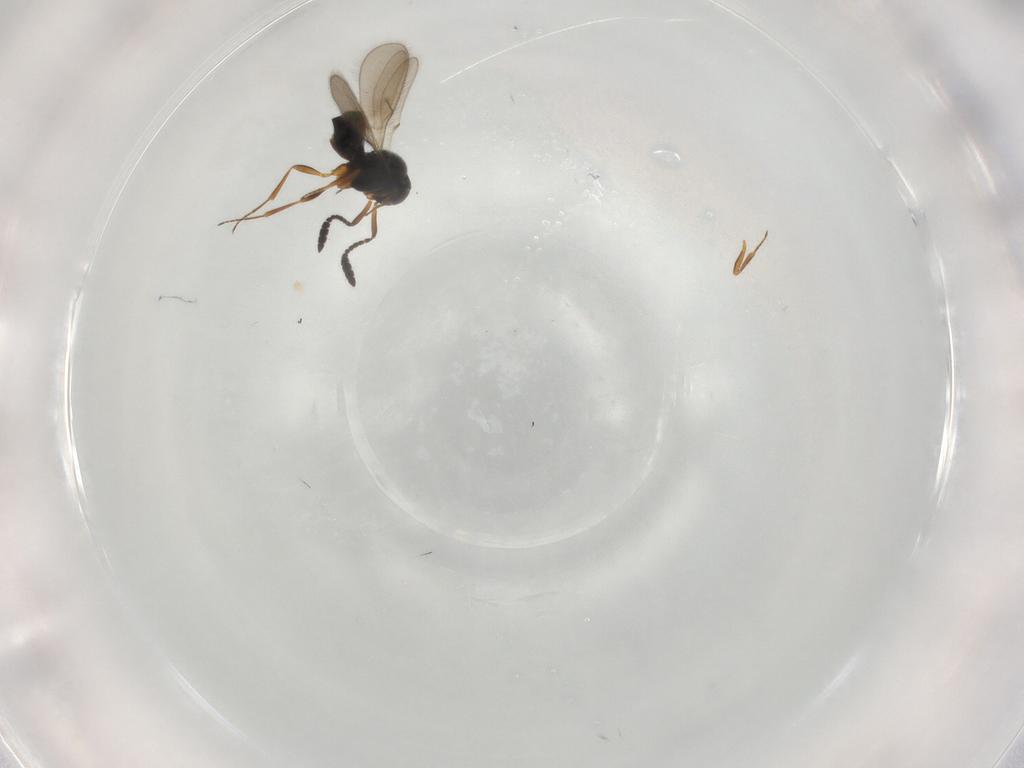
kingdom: Animalia
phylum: Arthropoda
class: Insecta
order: Hymenoptera
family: Scelionidae
